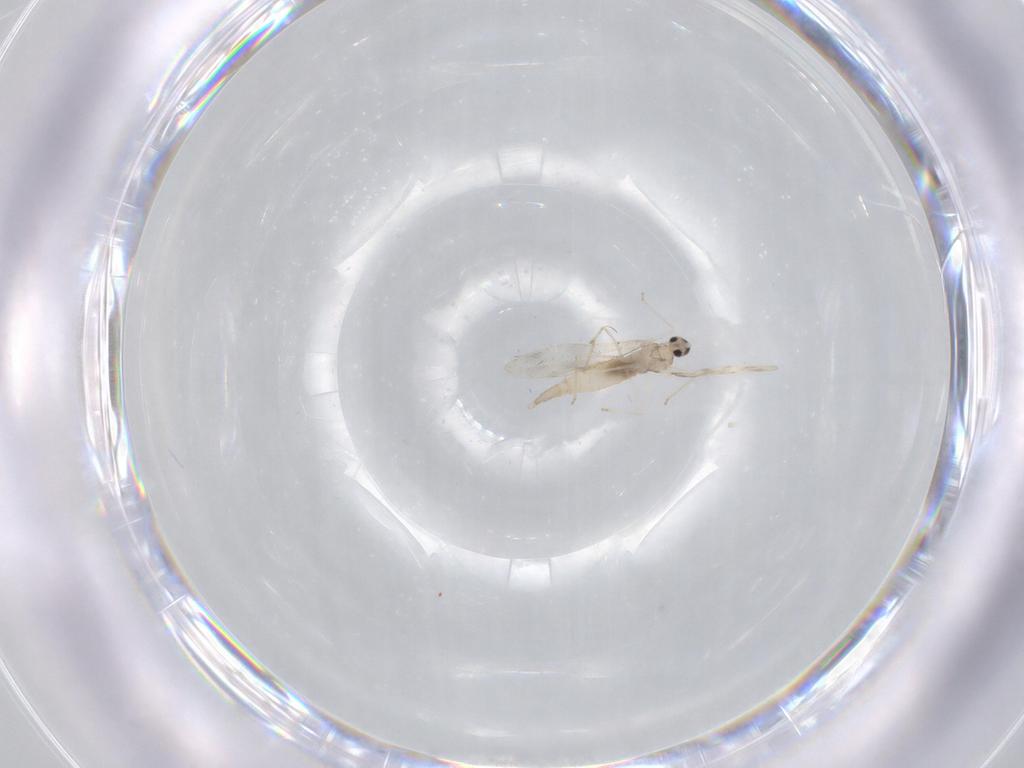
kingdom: Animalia
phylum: Arthropoda
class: Insecta
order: Diptera
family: Cecidomyiidae
